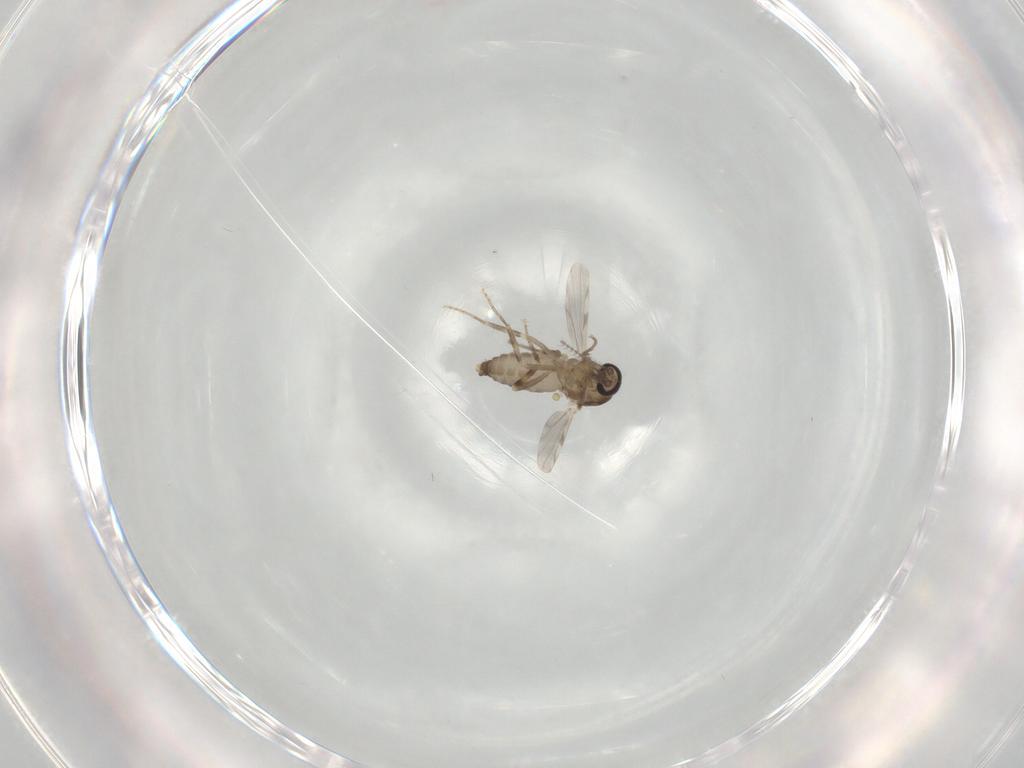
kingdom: Animalia
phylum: Arthropoda
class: Insecta
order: Diptera
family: Ceratopogonidae
